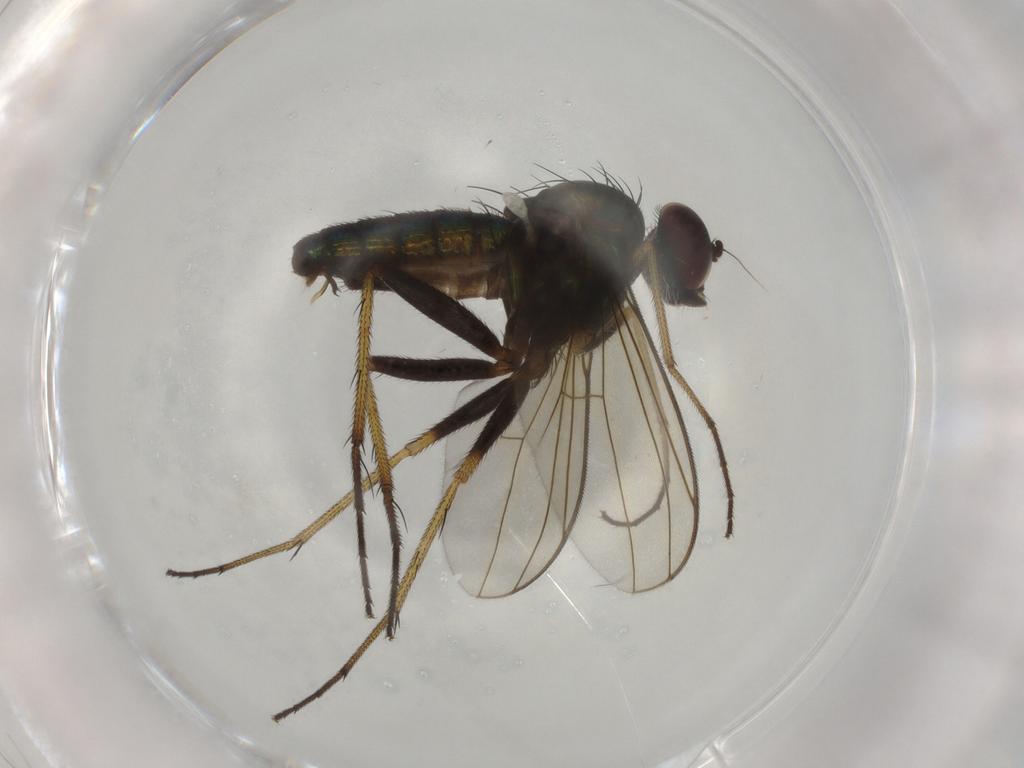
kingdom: Animalia
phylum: Arthropoda
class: Insecta
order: Diptera
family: Dolichopodidae
